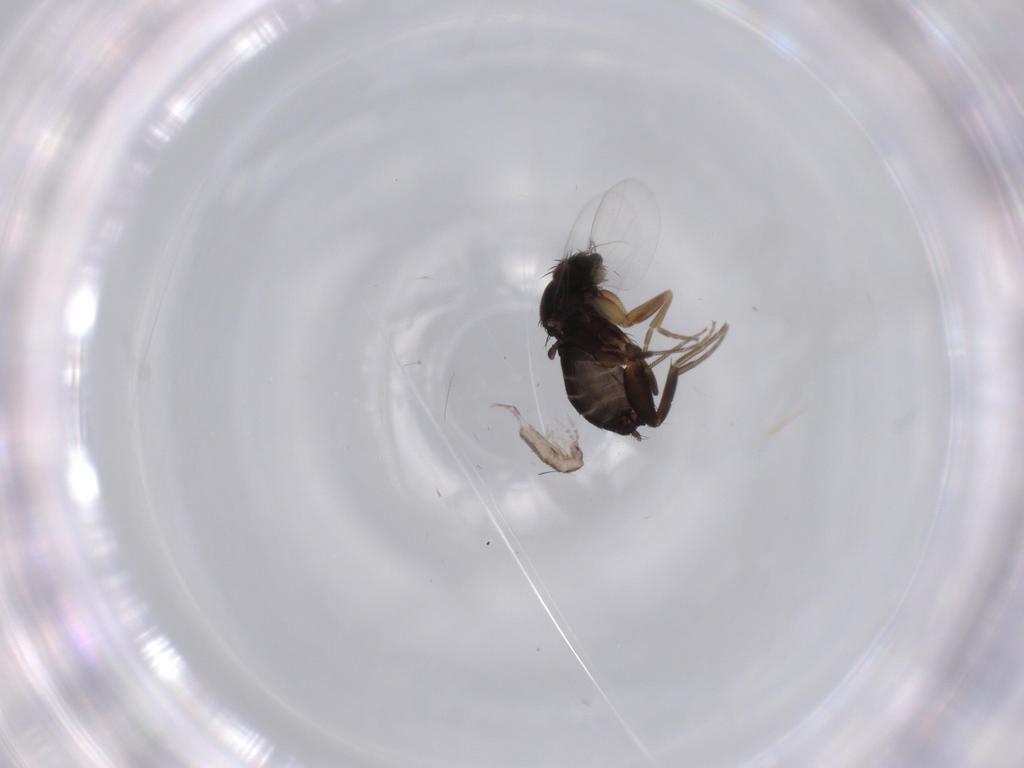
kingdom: Animalia
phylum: Arthropoda
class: Insecta
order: Diptera
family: Phoridae
